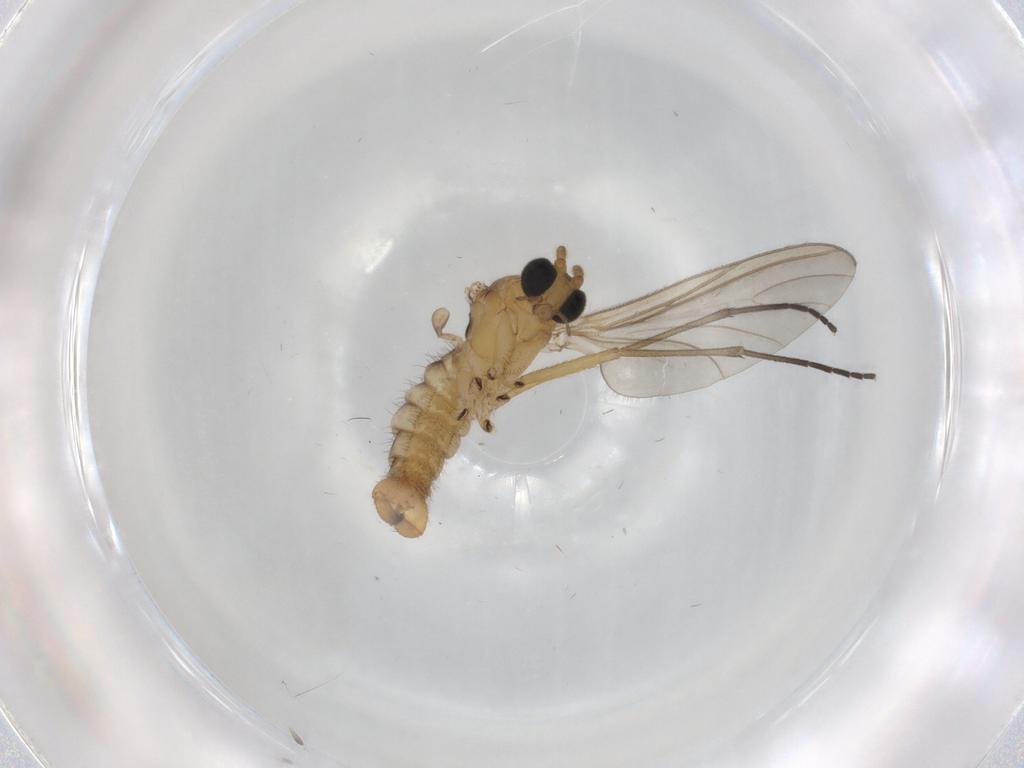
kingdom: Animalia
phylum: Arthropoda
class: Insecta
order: Diptera
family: Sciaridae
